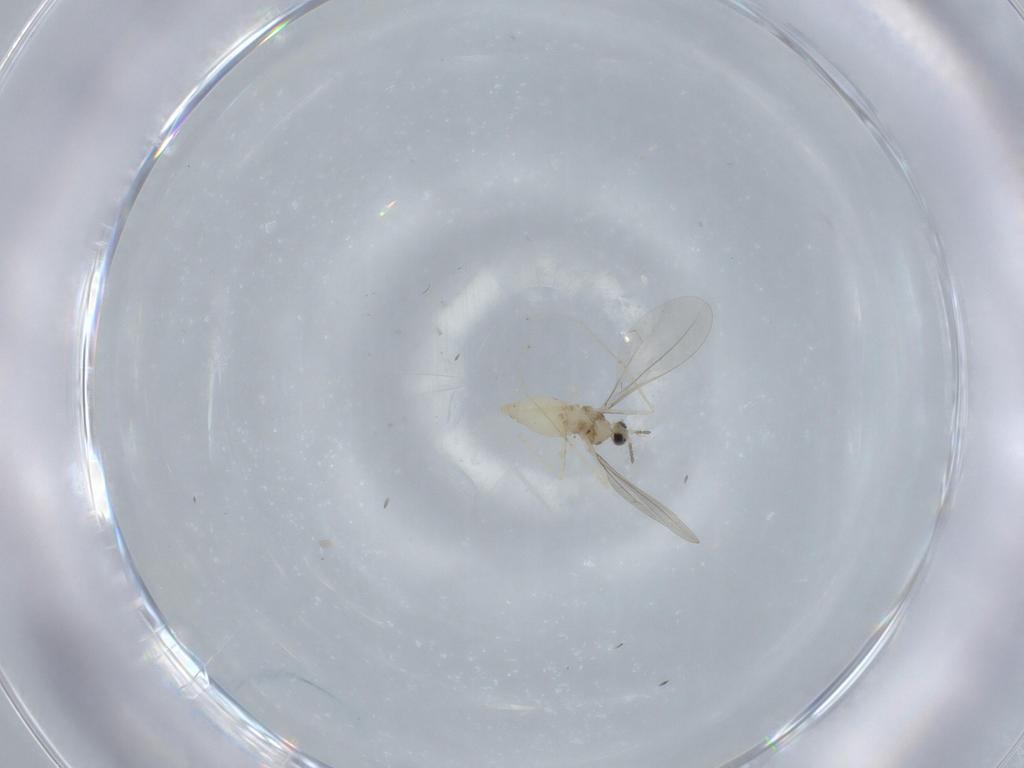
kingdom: Animalia
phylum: Arthropoda
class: Insecta
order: Diptera
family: Cecidomyiidae
